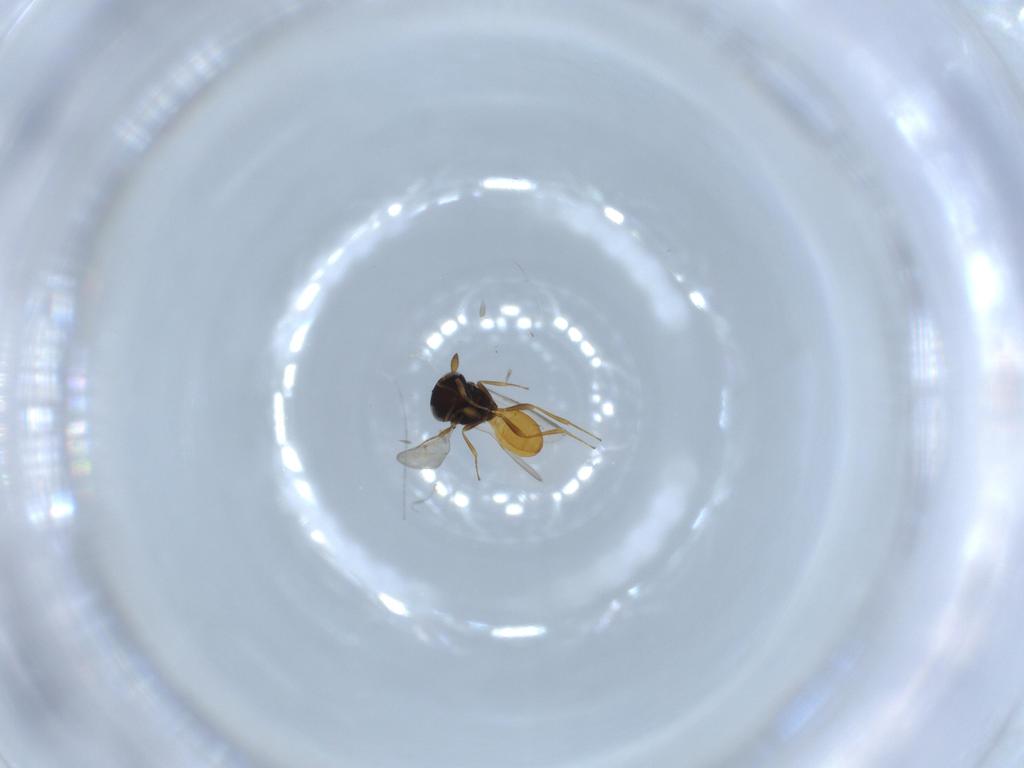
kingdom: Animalia
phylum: Arthropoda
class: Insecta
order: Hymenoptera
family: Scelionidae
